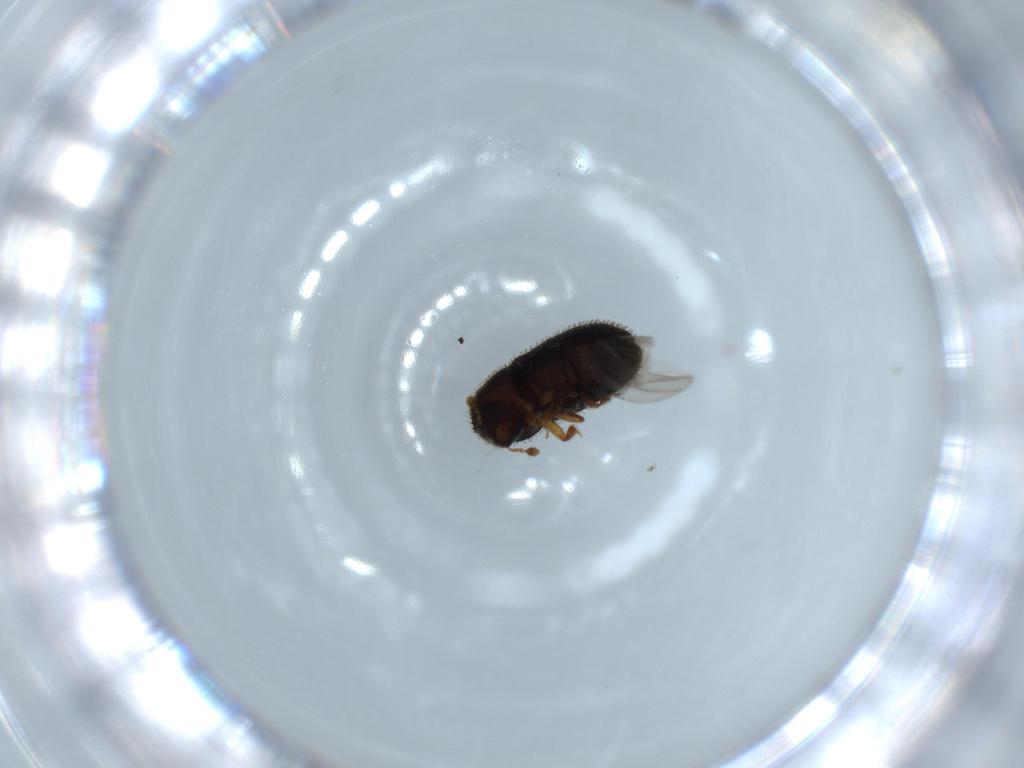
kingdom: Animalia
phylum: Arthropoda
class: Insecta
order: Coleoptera
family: Curculionidae
